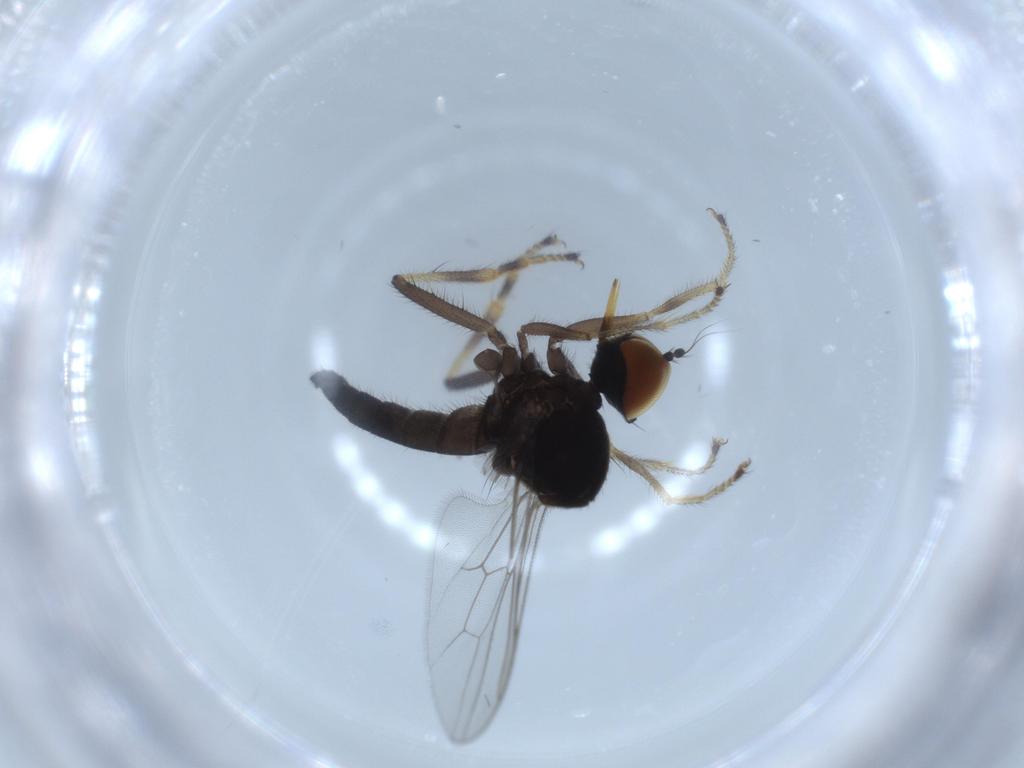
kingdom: Animalia
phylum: Arthropoda
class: Insecta
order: Diptera
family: Hybotidae
